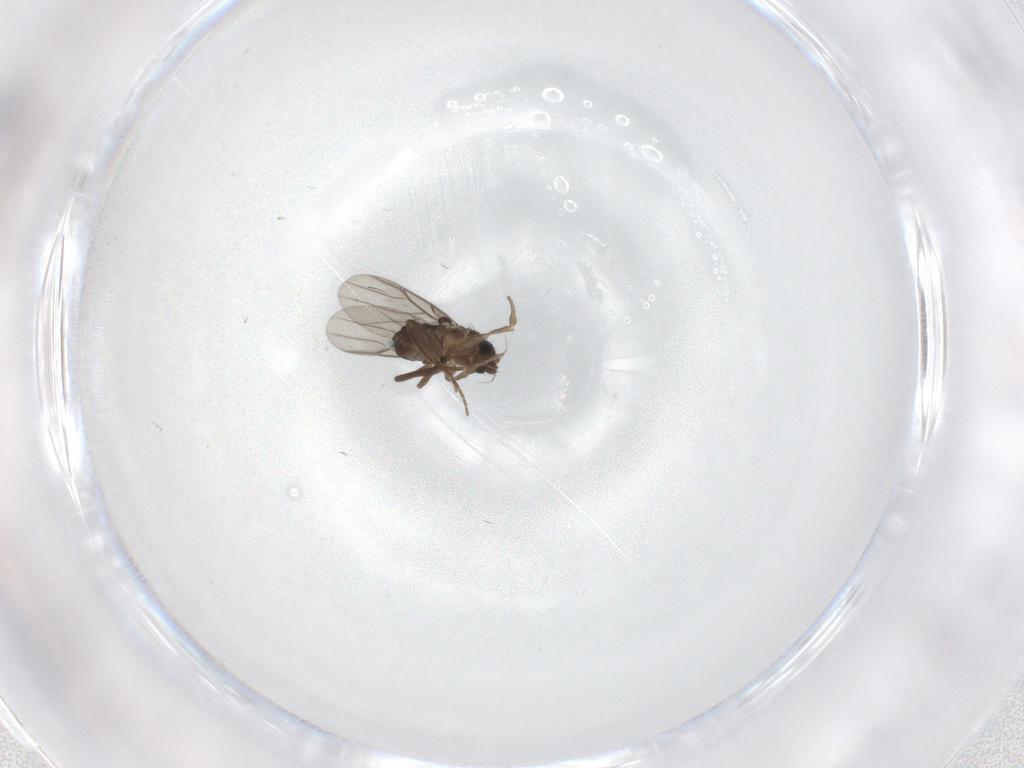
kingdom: Animalia
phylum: Arthropoda
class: Insecta
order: Diptera
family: Phoridae
